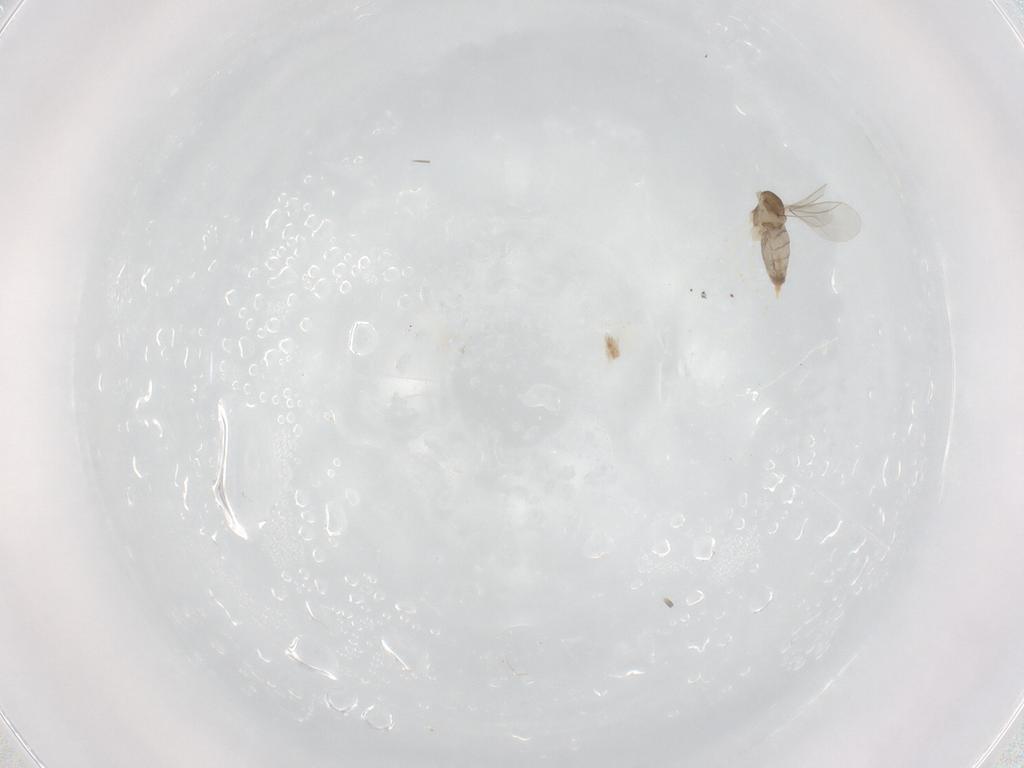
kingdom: Animalia
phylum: Arthropoda
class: Insecta
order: Diptera
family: Cecidomyiidae
